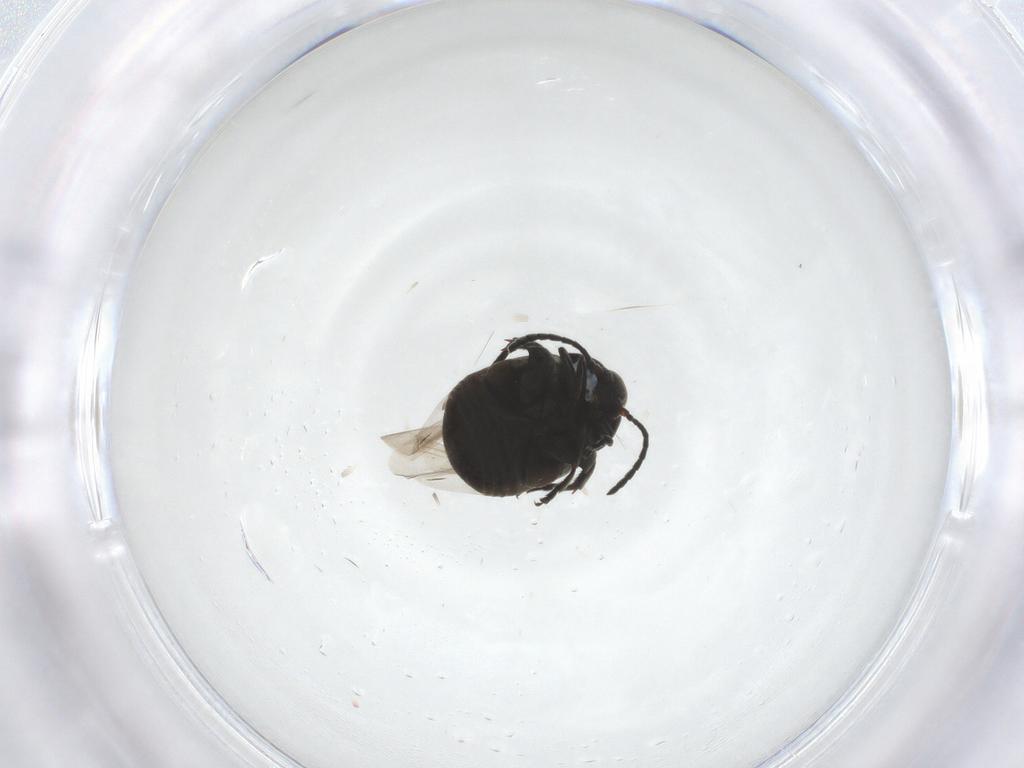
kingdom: Animalia
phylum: Arthropoda
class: Insecta
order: Coleoptera
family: Chrysomelidae
